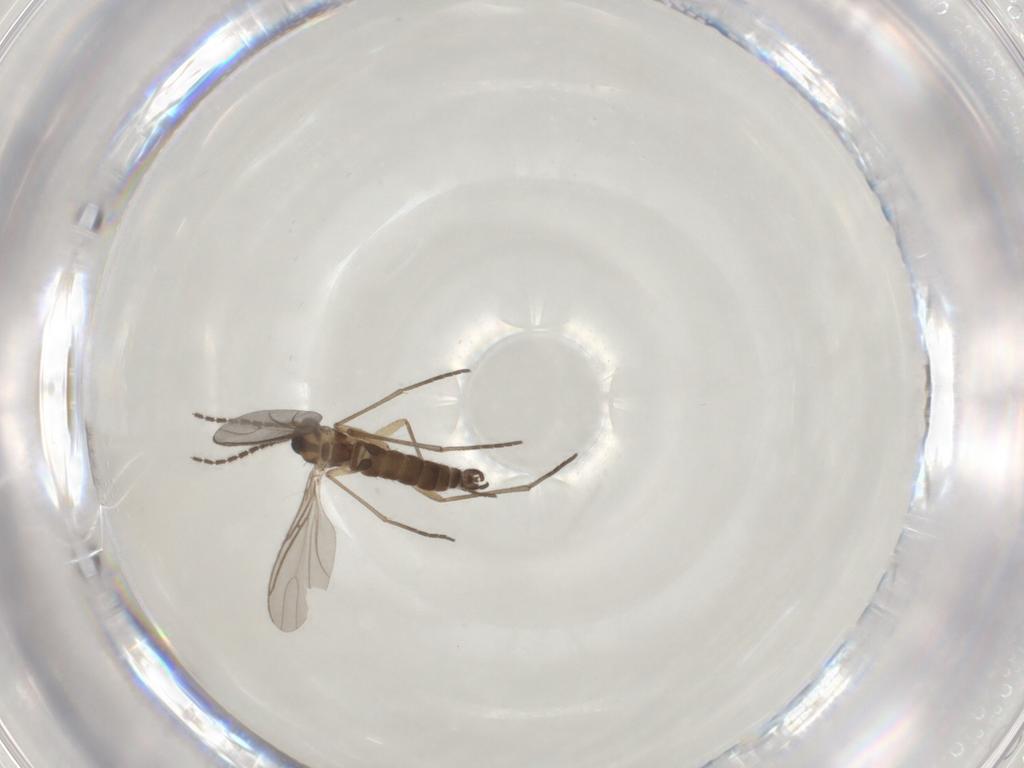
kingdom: Animalia
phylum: Arthropoda
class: Insecta
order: Diptera
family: Sciaridae
